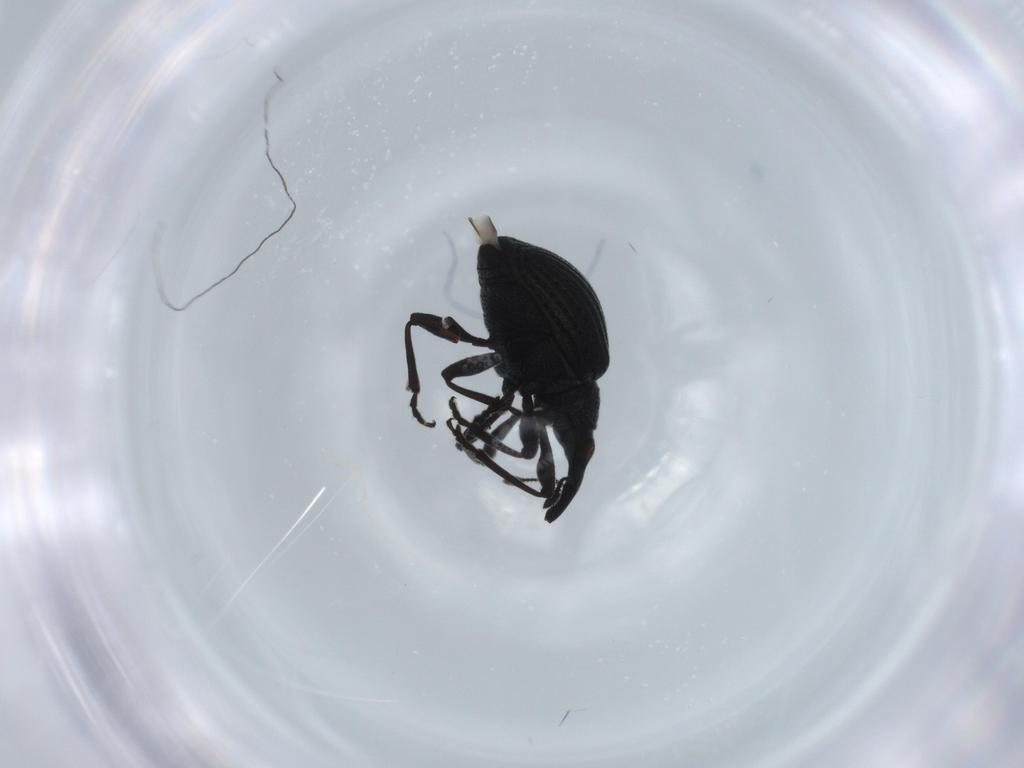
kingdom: Animalia
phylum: Arthropoda
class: Insecta
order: Coleoptera
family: Brentidae
